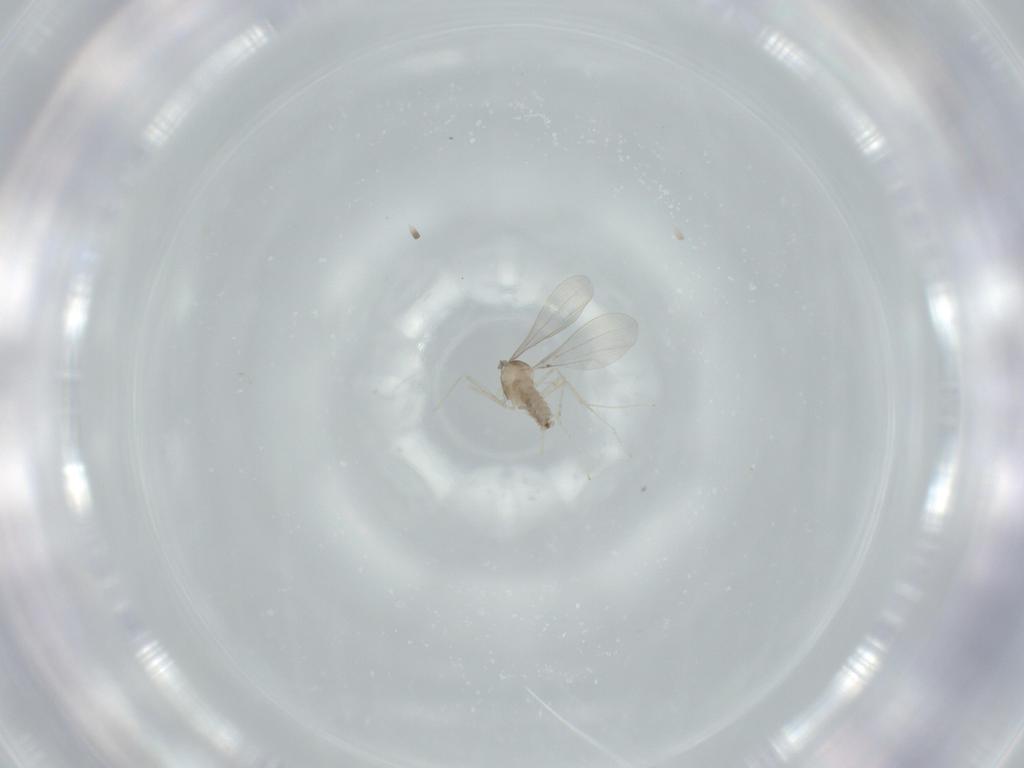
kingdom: Animalia
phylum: Arthropoda
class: Insecta
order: Diptera
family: Cecidomyiidae
